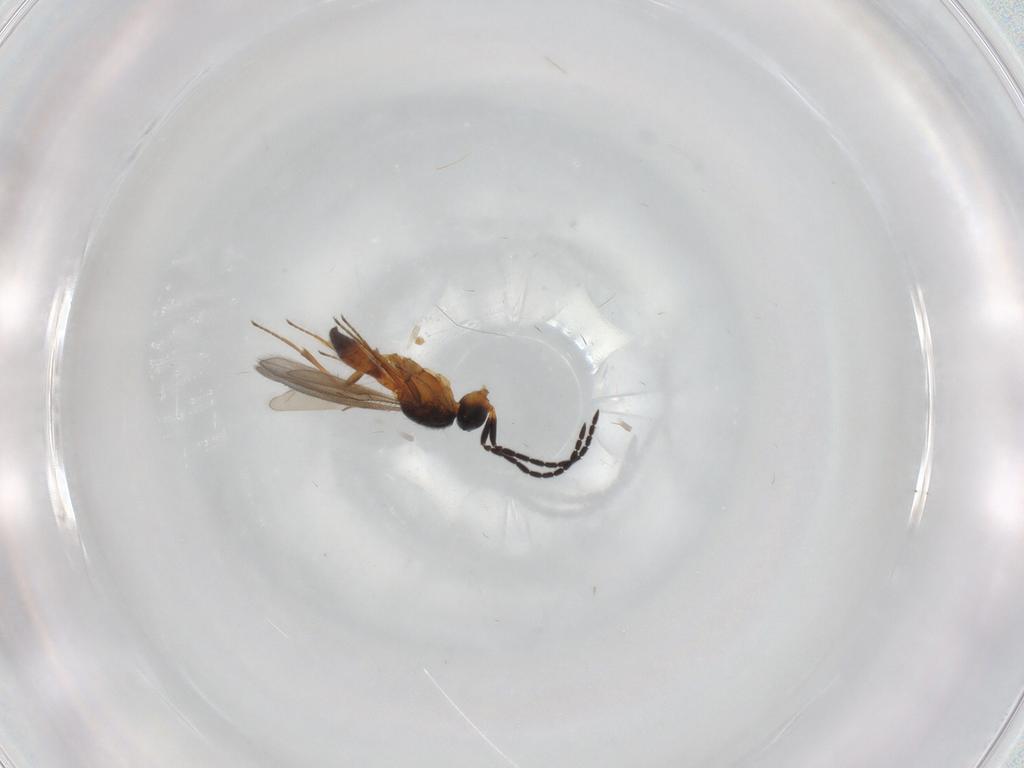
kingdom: Animalia
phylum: Arthropoda
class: Insecta
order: Hymenoptera
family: Scelionidae
